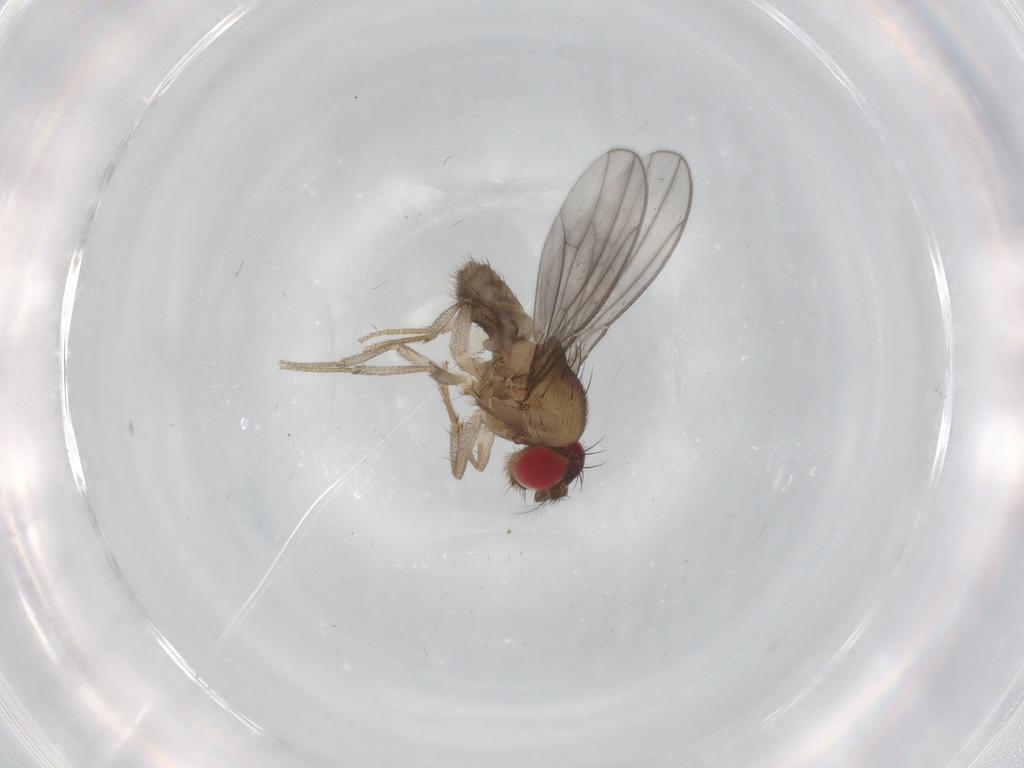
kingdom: Animalia
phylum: Arthropoda
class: Insecta
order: Diptera
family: Drosophilidae
